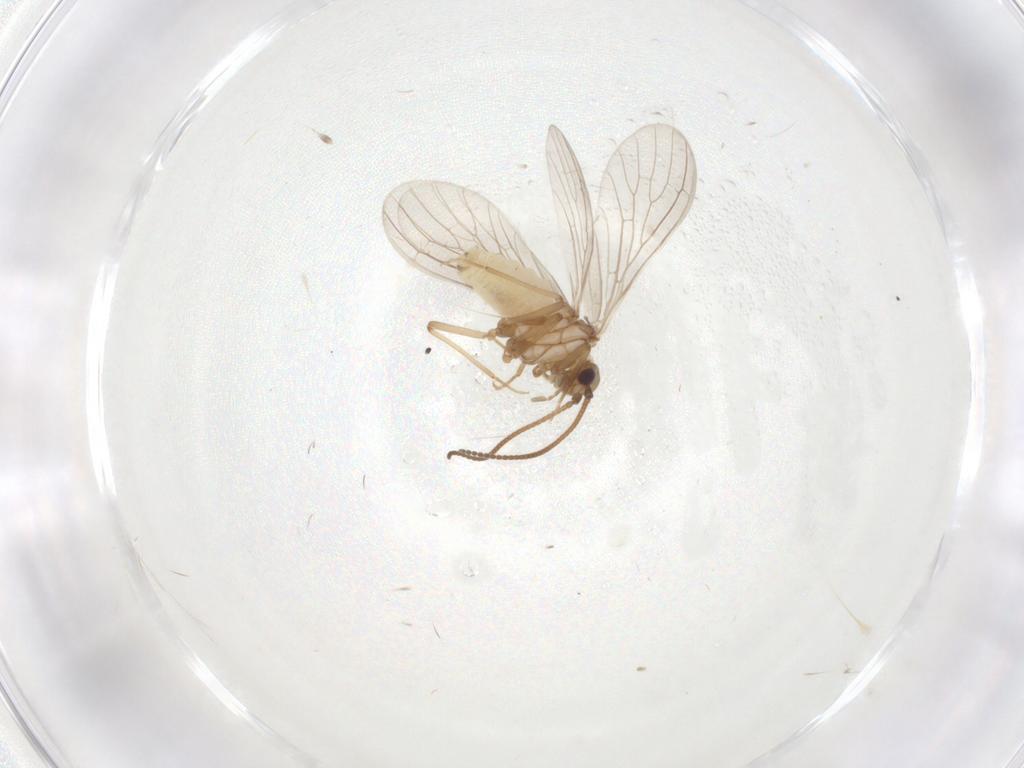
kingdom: Animalia
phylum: Arthropoda
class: Insecta
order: Neuroptera
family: Coniopterygidae
